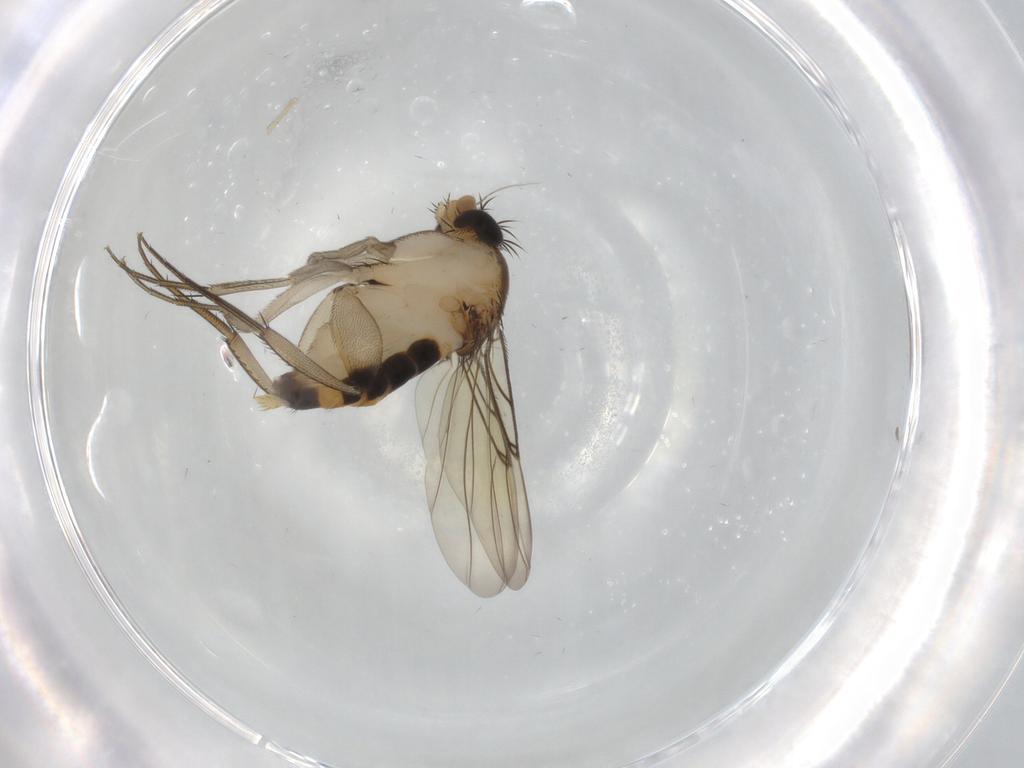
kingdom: Animalia
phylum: Arthropoda
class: Insecta
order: Diptera
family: Phoridae
